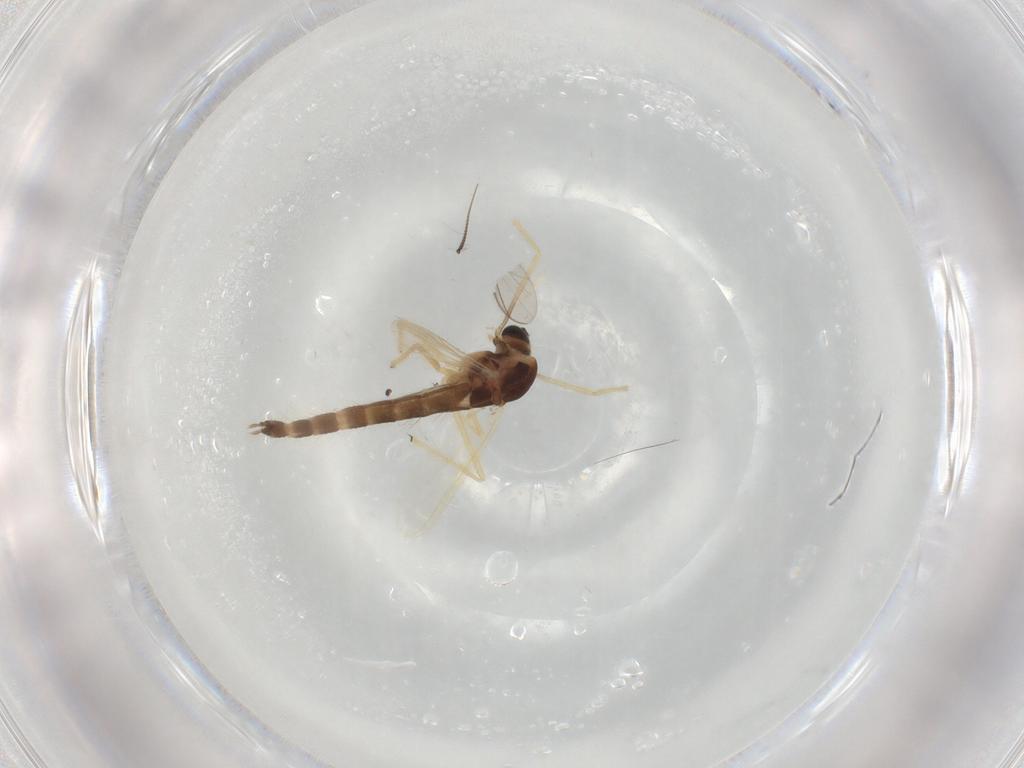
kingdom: Animalia
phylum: Arthropoda
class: Insecta
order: Diptera
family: Chironomidae
